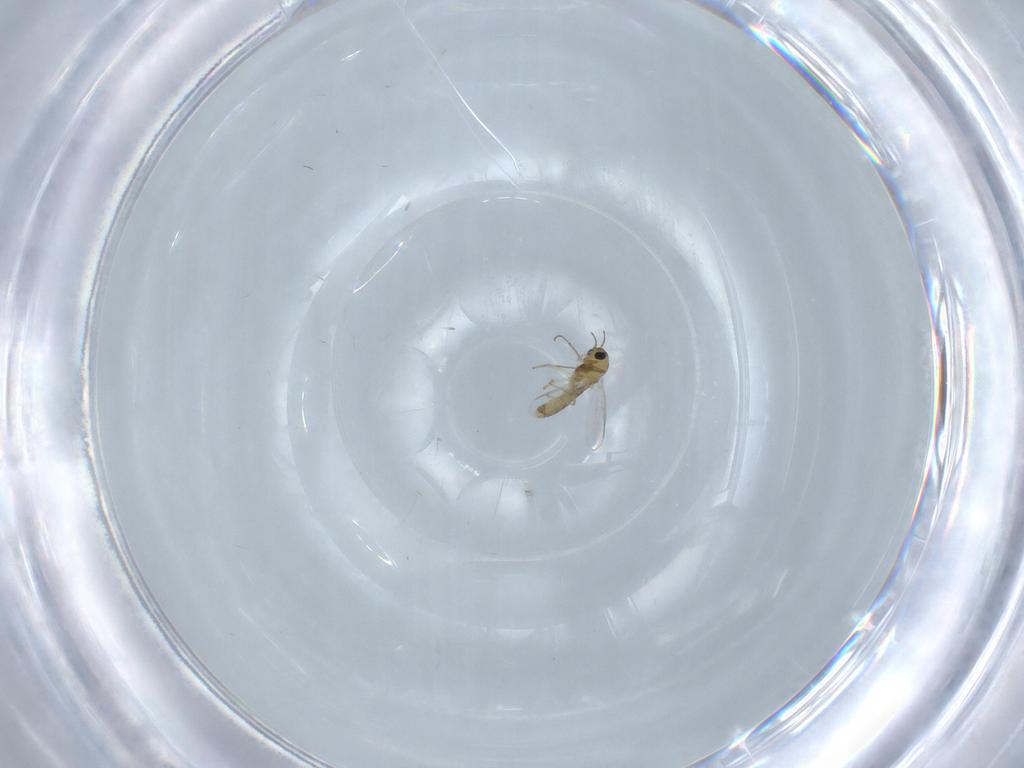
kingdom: Animalia
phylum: Arthropoda
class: Insecta
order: Diptera
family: Chironomidae
